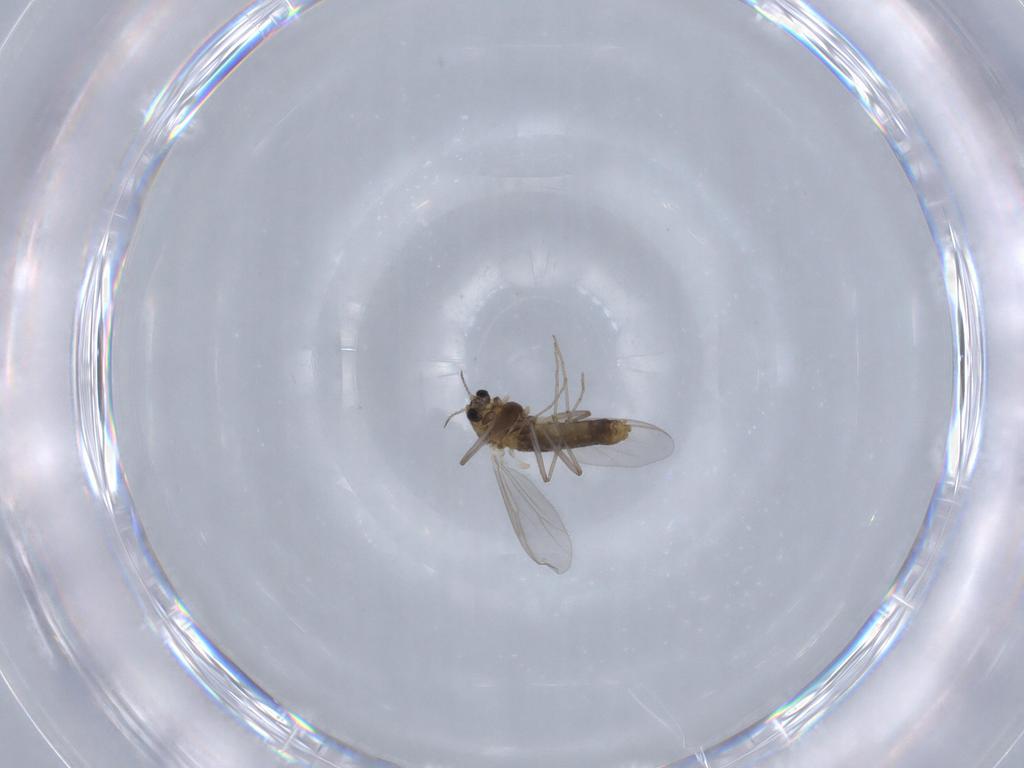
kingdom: Animalia
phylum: Arthropoda
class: Insecta
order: Diptera
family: Chironomidae
